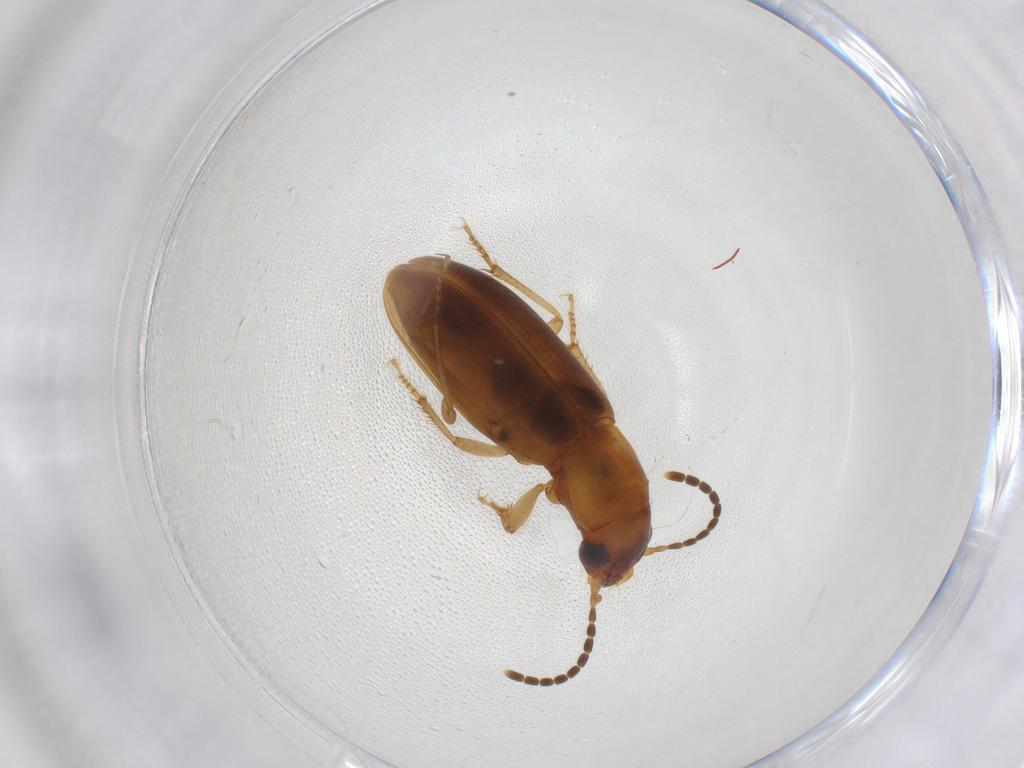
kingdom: Animalia
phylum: Arthropoda
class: Insecta
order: Coleoptera
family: Carabidae
